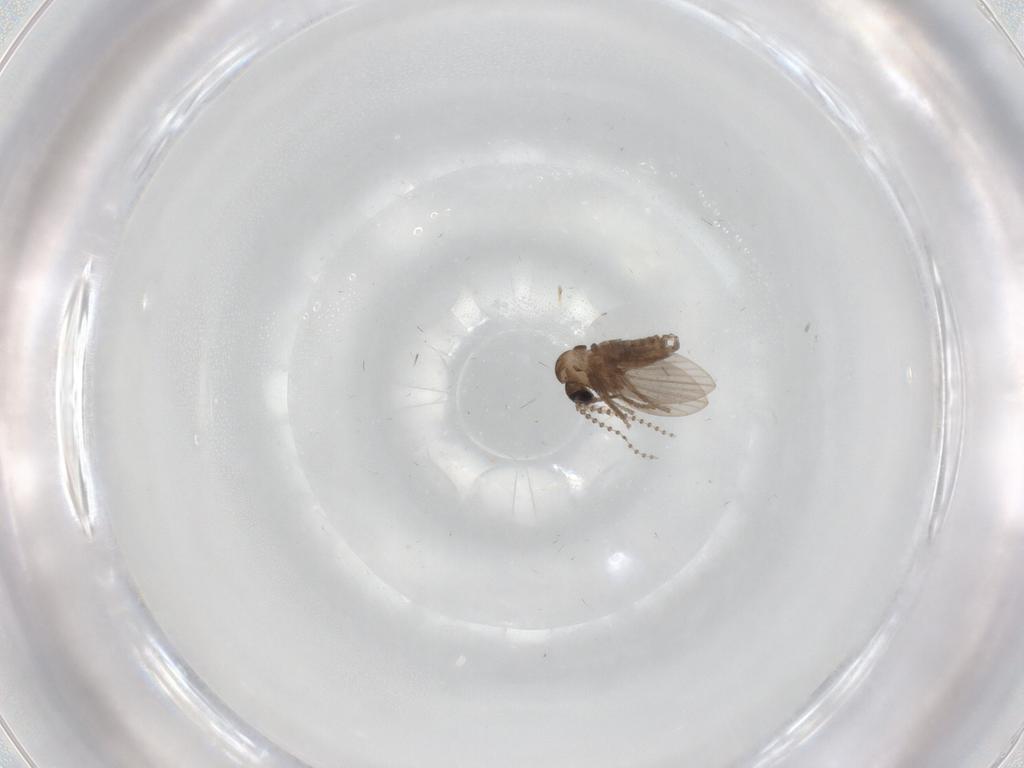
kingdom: Animalia
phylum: Arthropoda
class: Insecta
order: Diptera
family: Psychodidae
